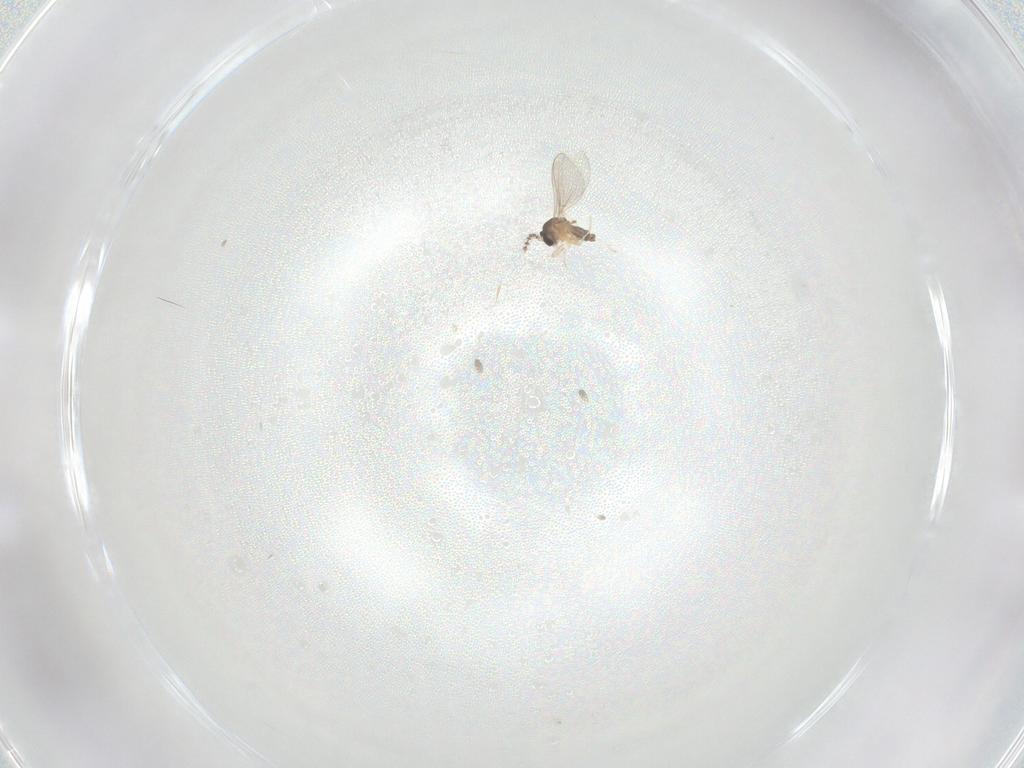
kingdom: Animalia
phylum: Arthropoda
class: Insecta
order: Diptera
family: Cecidomyiidae
